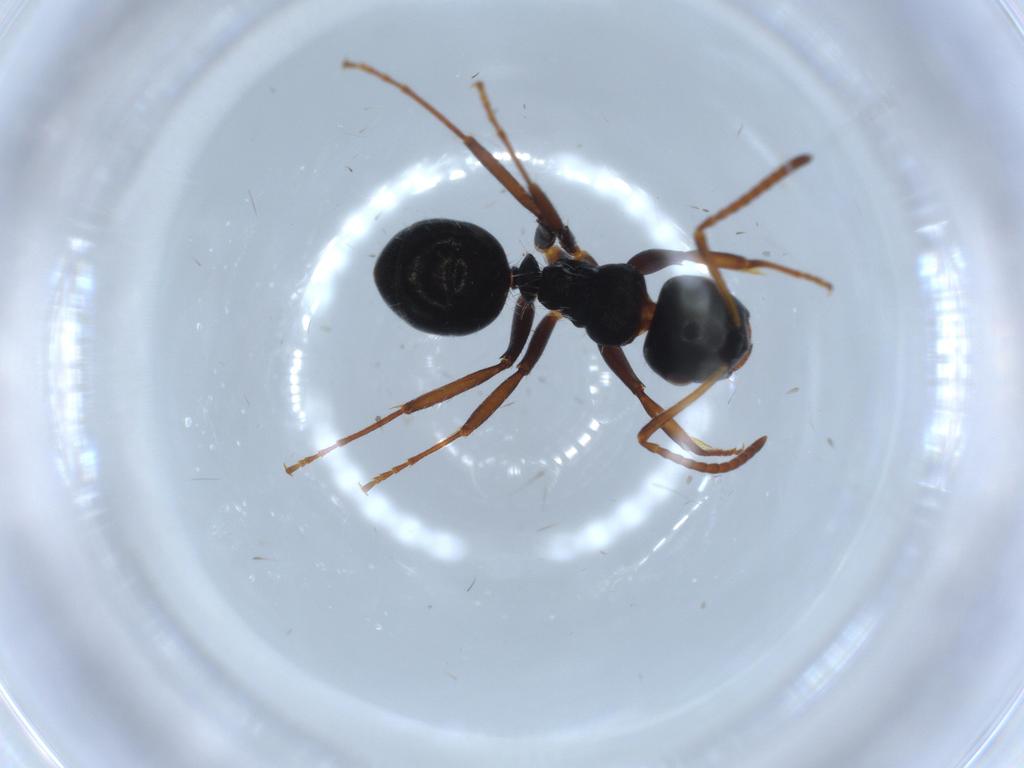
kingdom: Animalia
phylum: Arthropoda
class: Insecta
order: Hymenoptera
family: Formicidae
